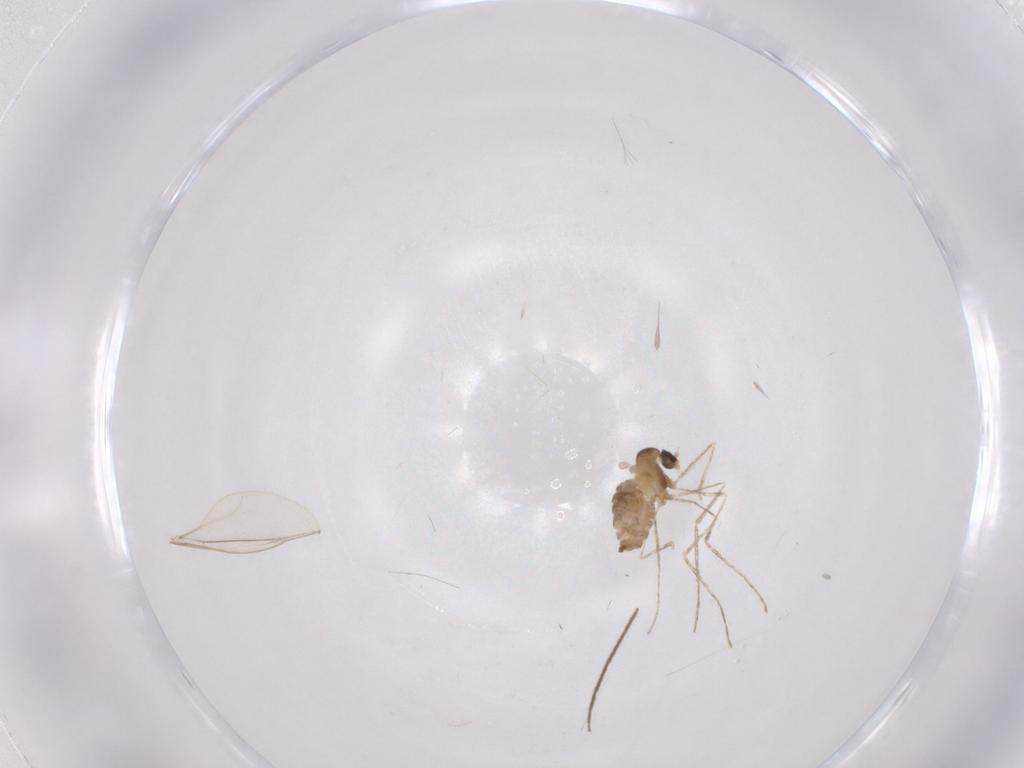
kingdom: Animalia
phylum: Arthropoda
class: Insecta
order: Diptera
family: Cecidomyiidae
